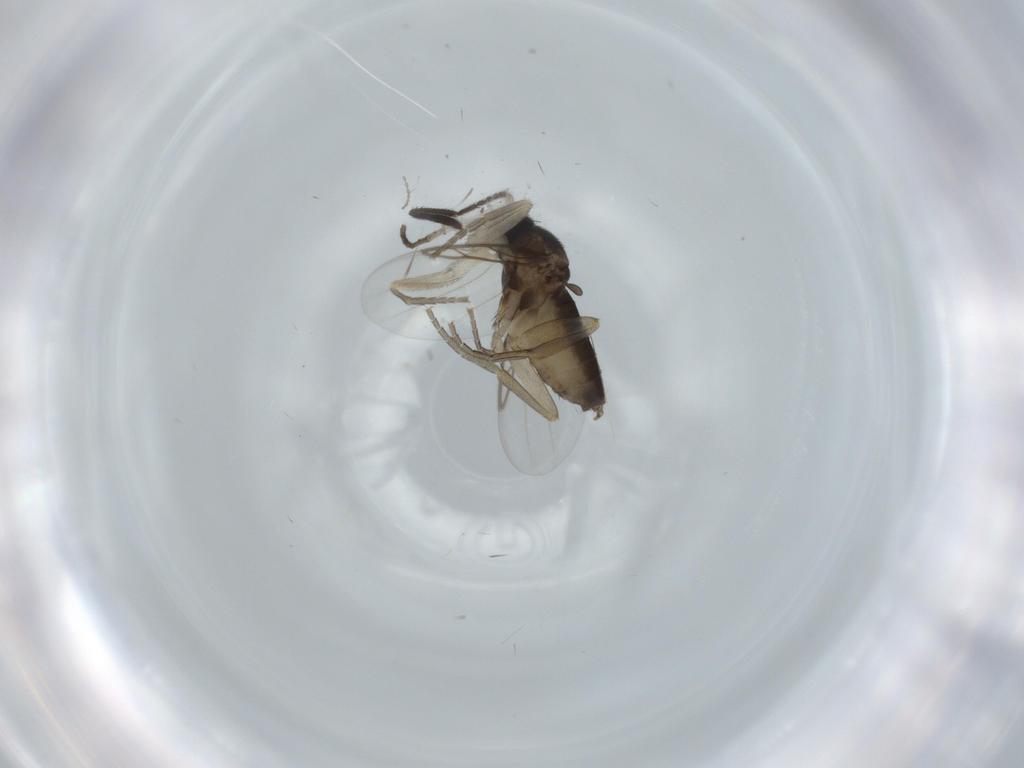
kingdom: Animalia
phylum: Arthropoda
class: Insecta
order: Diptera
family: Phoridae
